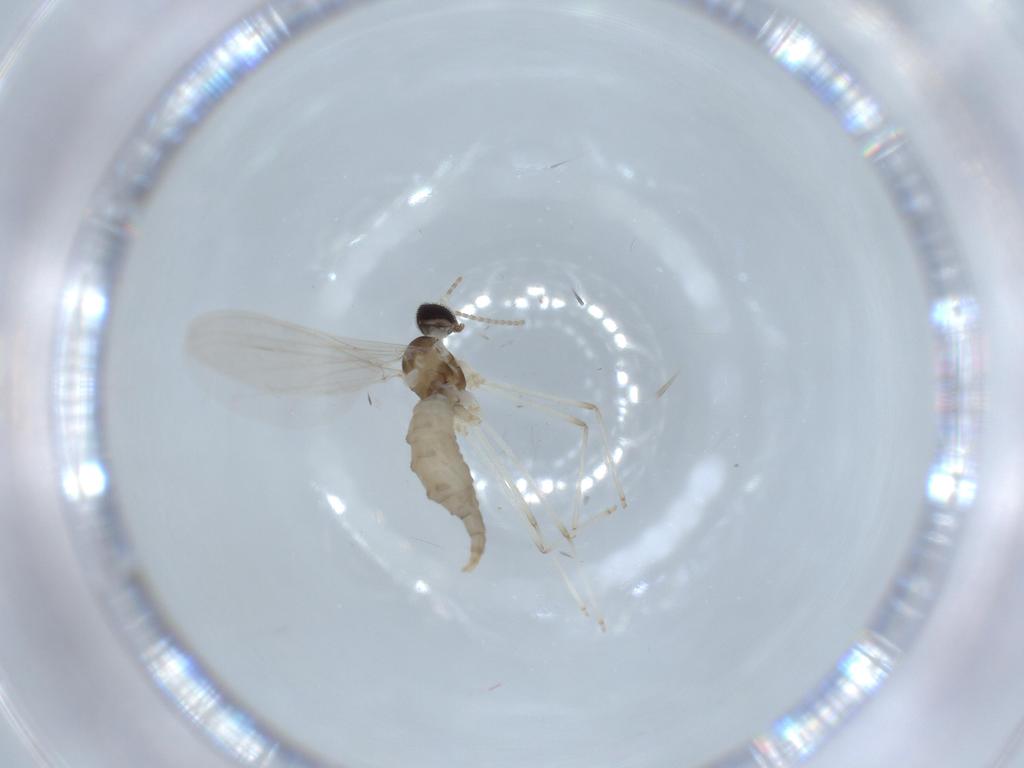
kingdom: Animalia
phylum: Arthropoda
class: Insecta
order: Diptera
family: Cecidomyiidae
